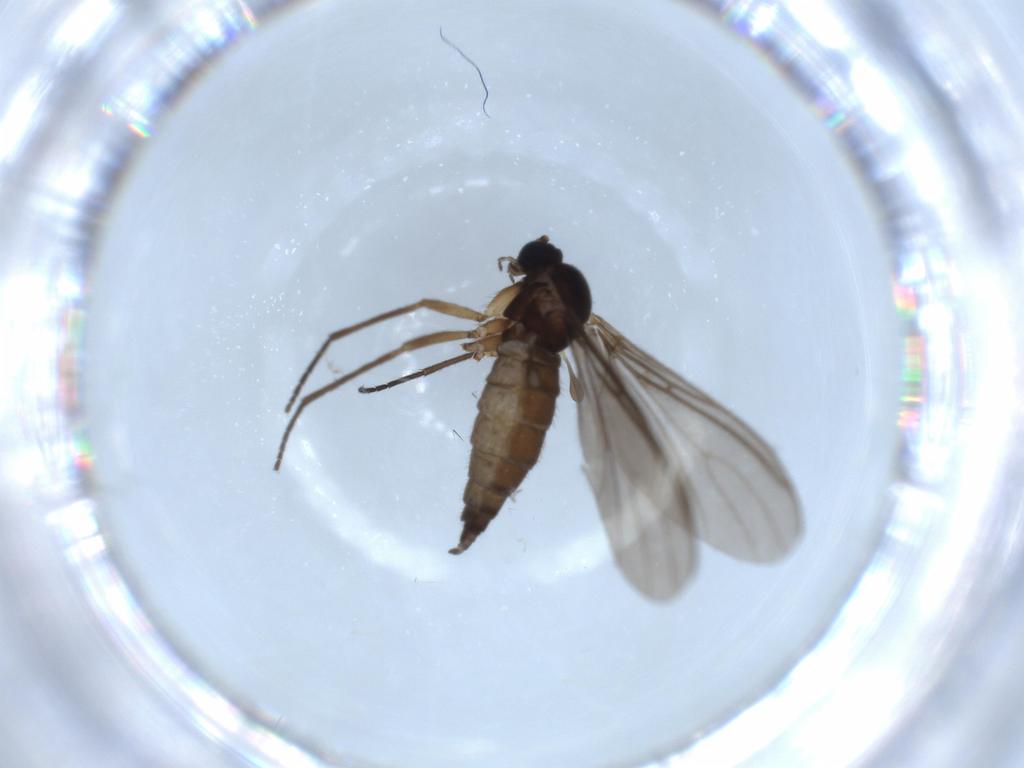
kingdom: Animalia
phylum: Arthropoda
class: Insecta
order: Diptera
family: Sciaridae
